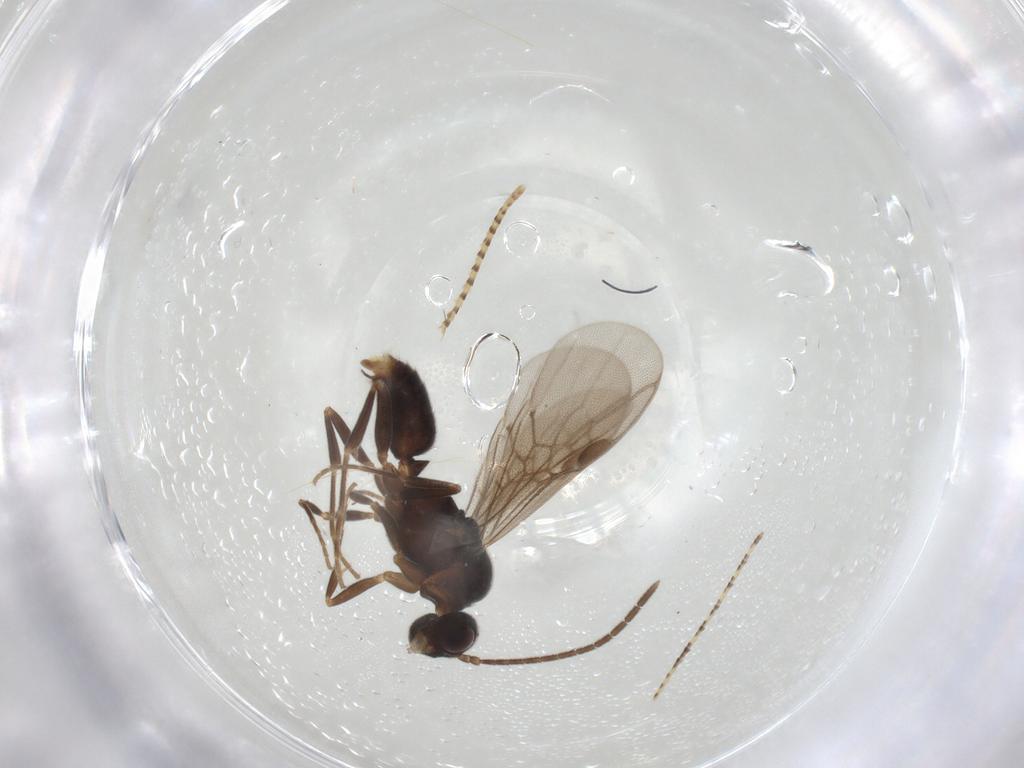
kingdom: Animalia
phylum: Arthropoda
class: Insecta
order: Hymenoptera
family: Formicidae
